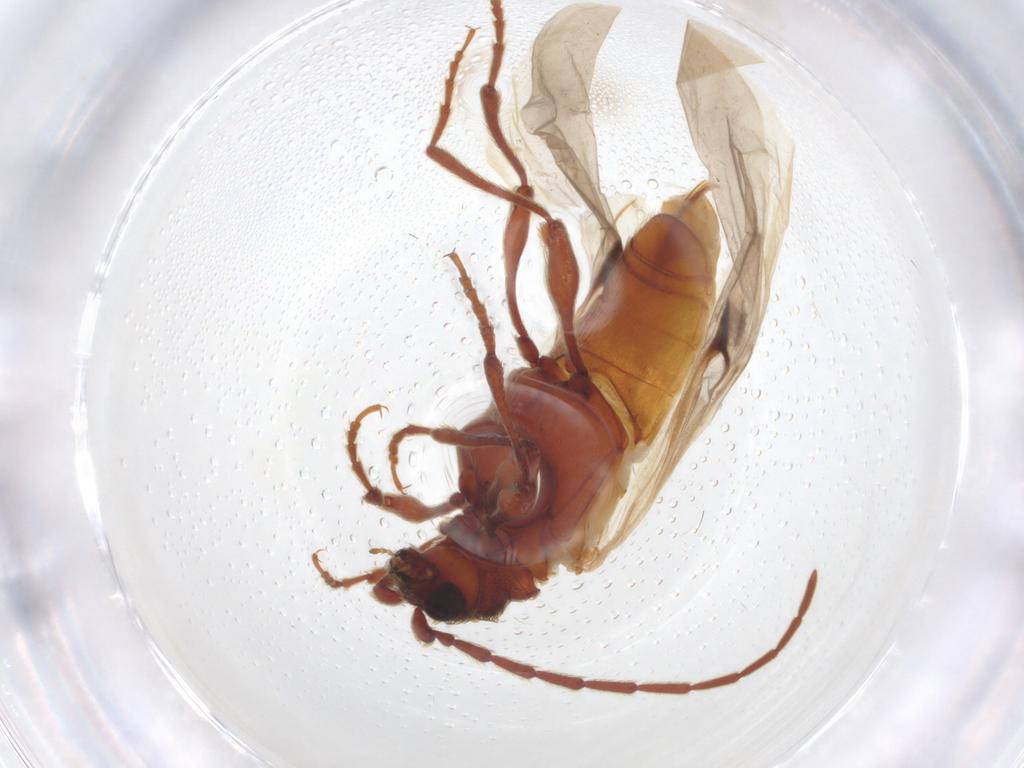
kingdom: Animalia
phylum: Arthropoda
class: Insecta
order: Coleoptera
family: Ptinidae
